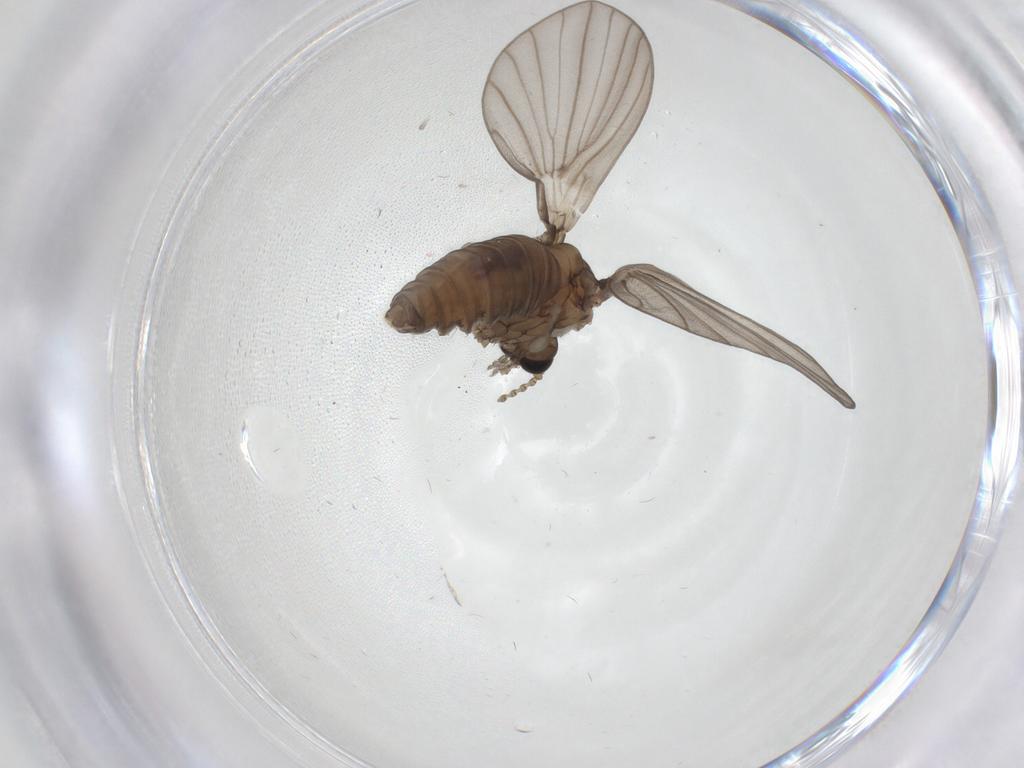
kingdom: Animalia
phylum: Arthropoda
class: Insecta
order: Diptera
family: Psychodidae
